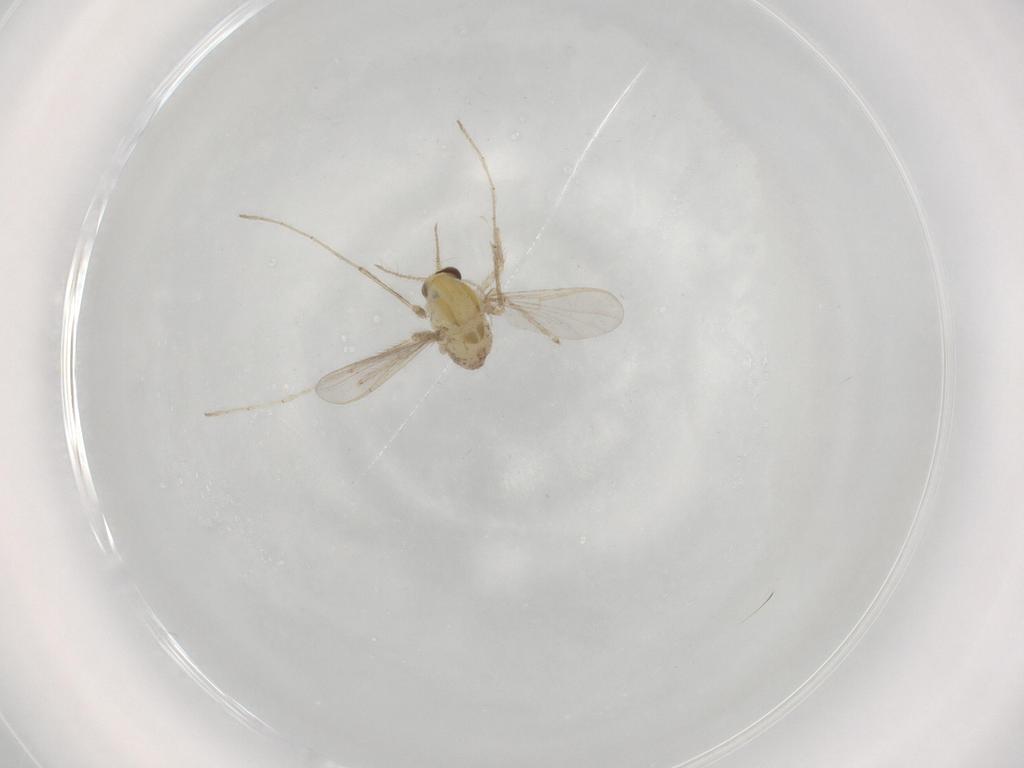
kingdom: Animalia
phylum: Arthropoda
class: Insecta
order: Diptera
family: Chironomidae
